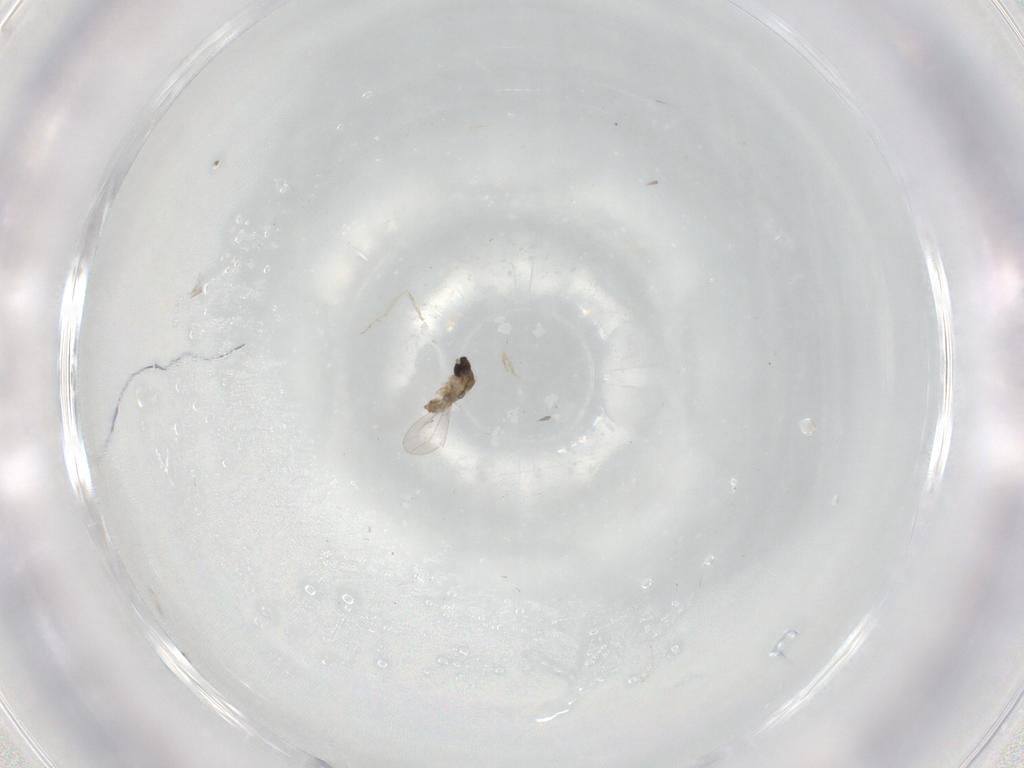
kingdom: Animalia
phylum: Arthropoda
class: Insecta
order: Diptera
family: Cecidomyiidae
